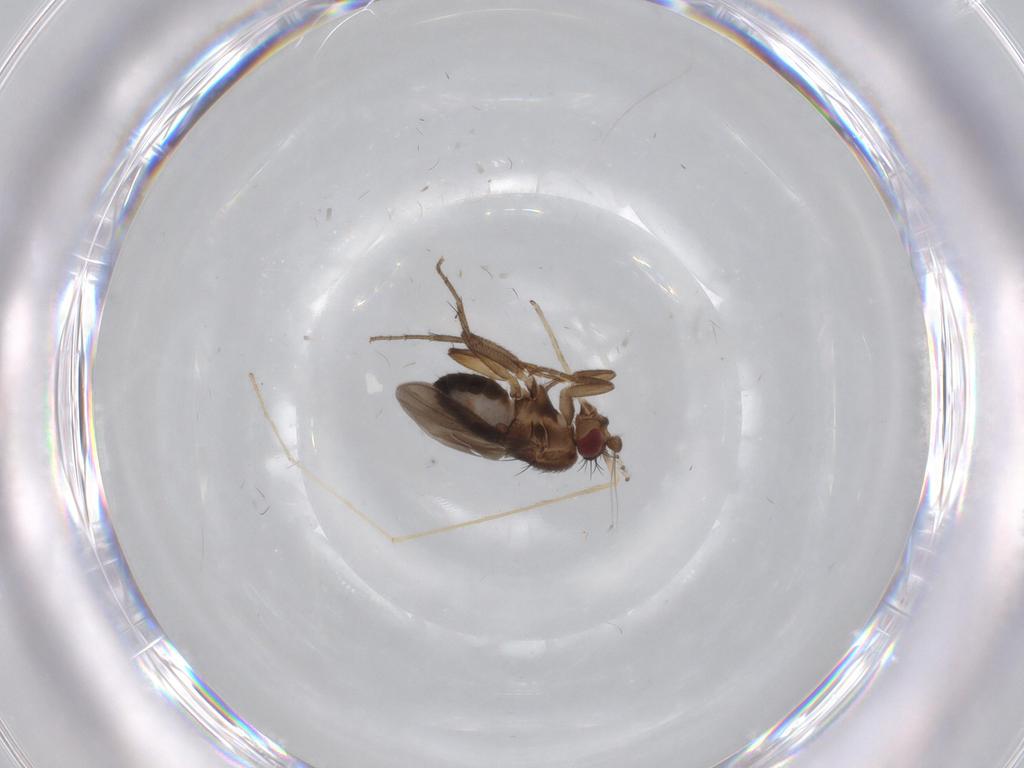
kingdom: Animalia
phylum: Arthropoda
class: Insecta
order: Diptera
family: Sphaeroceridae
